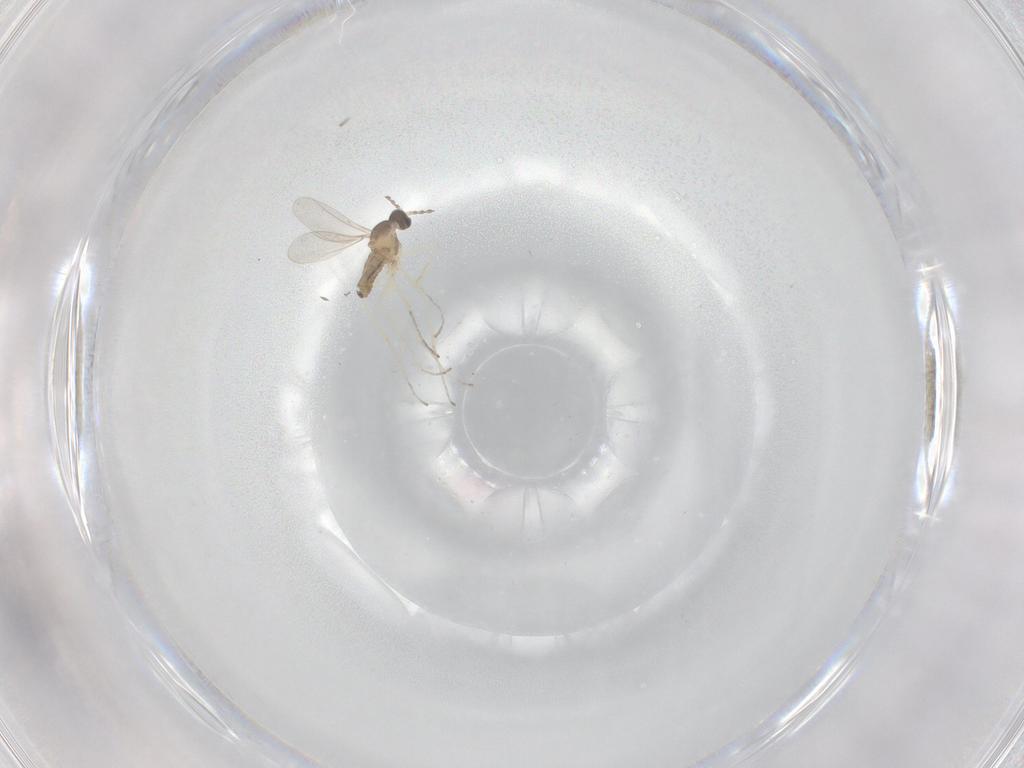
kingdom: Animalia
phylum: Arthropoda
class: Insecta
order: Diptera
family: Cecidomyiidae
